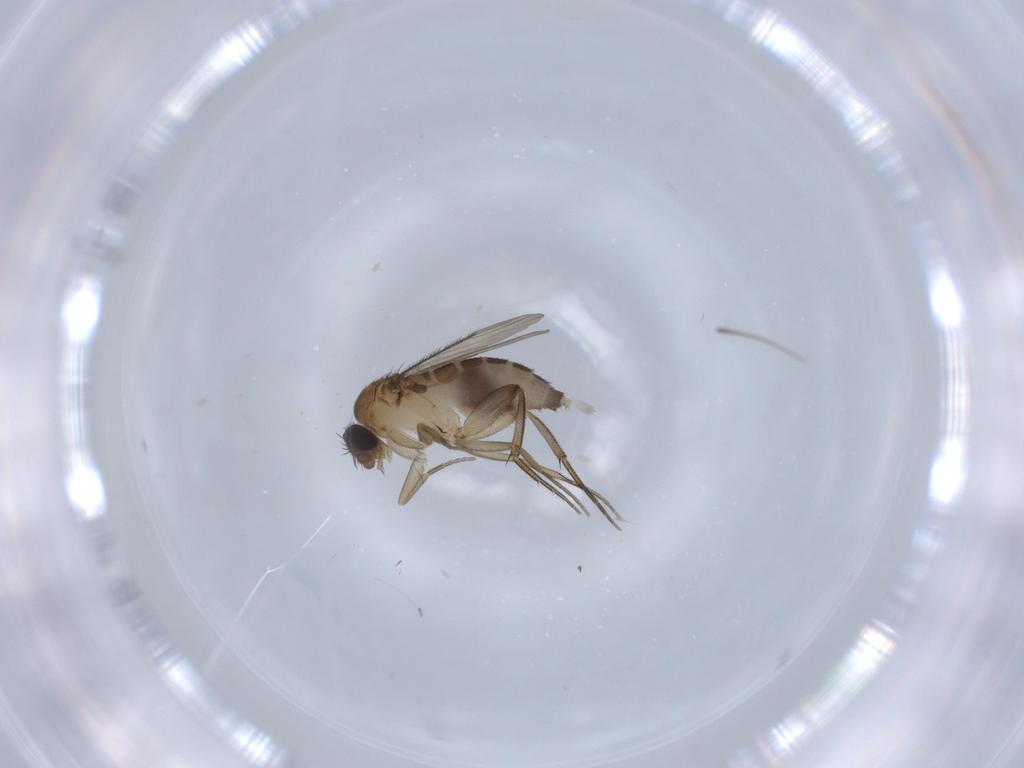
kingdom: Animalia
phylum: Arthropoda
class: Insecta
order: Diptera
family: Phoridae
